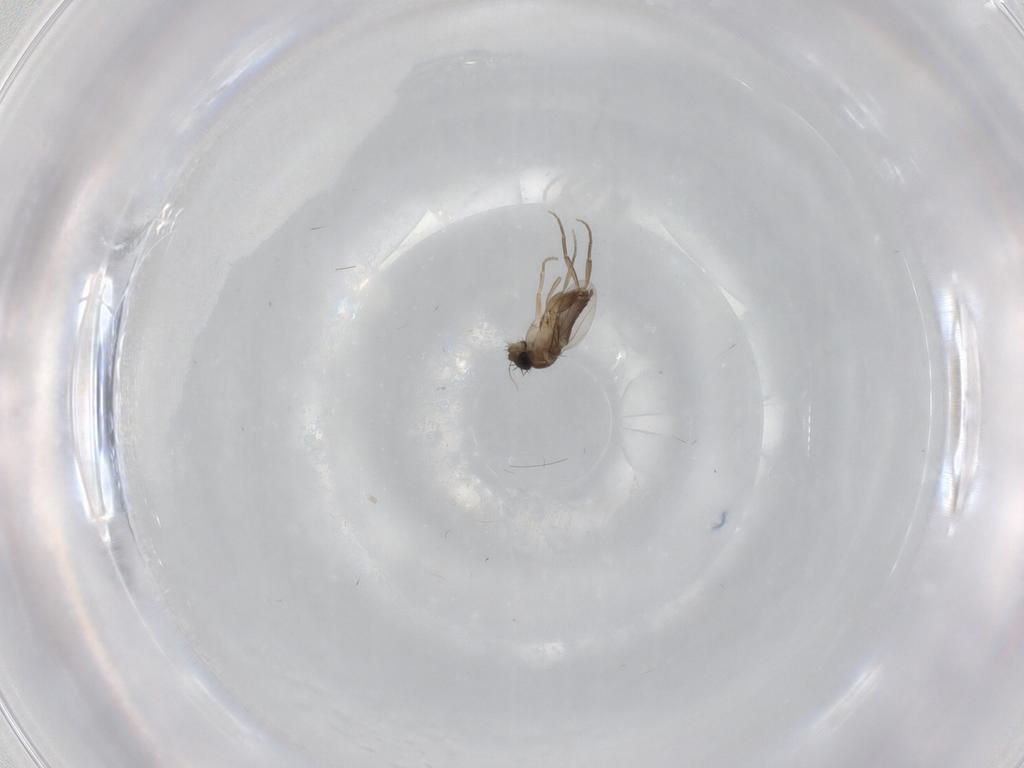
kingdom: Animalia
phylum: Arthropoda
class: Insecta
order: Diptera
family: Phoridae
